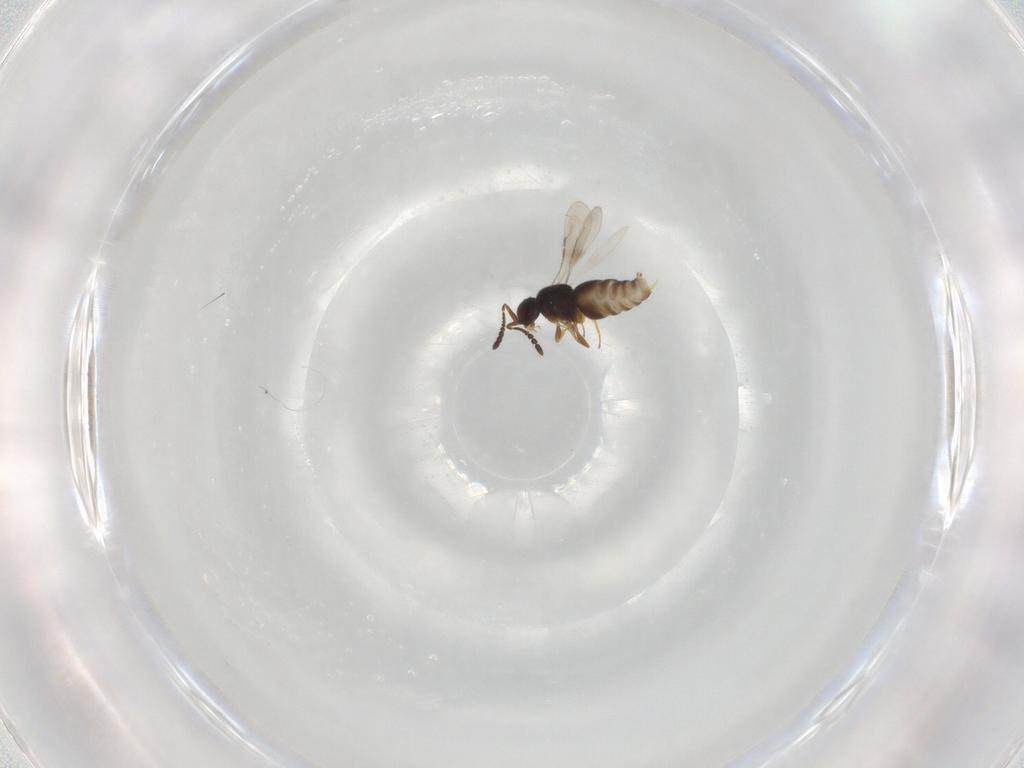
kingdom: Animalia
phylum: Arthropoda
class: Insecta
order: Hymenoptera
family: Ceraphronidae
